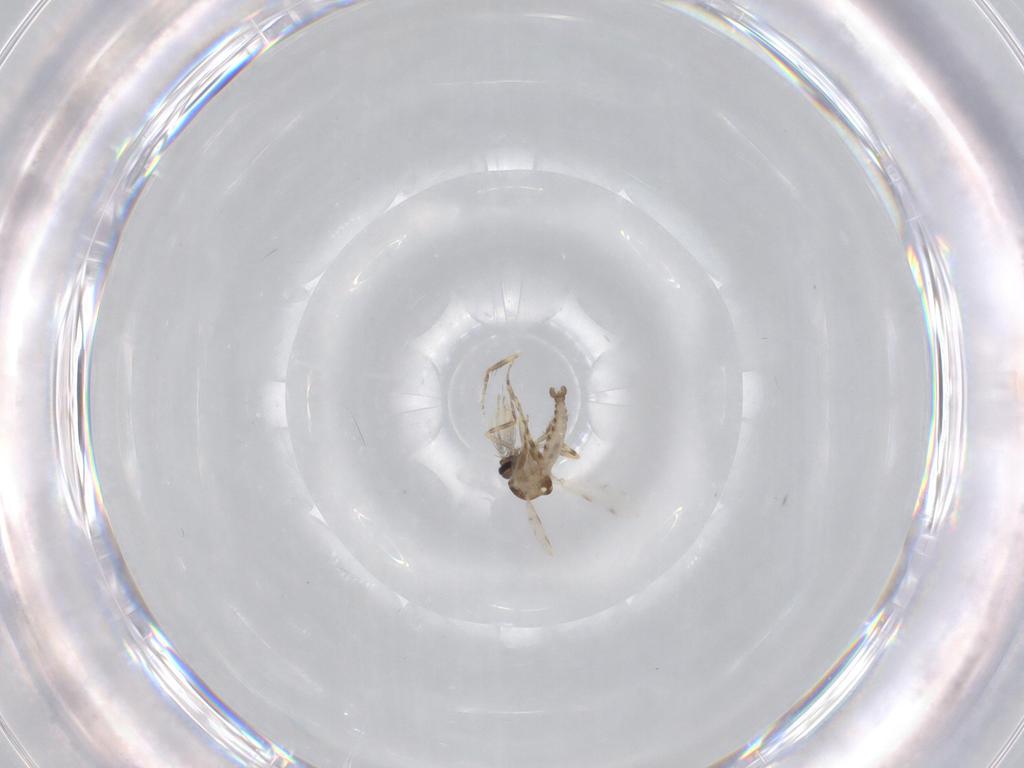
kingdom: Animalia
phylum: Arthropoda
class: Insecta
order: Diptera
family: Ceratopogonidae
